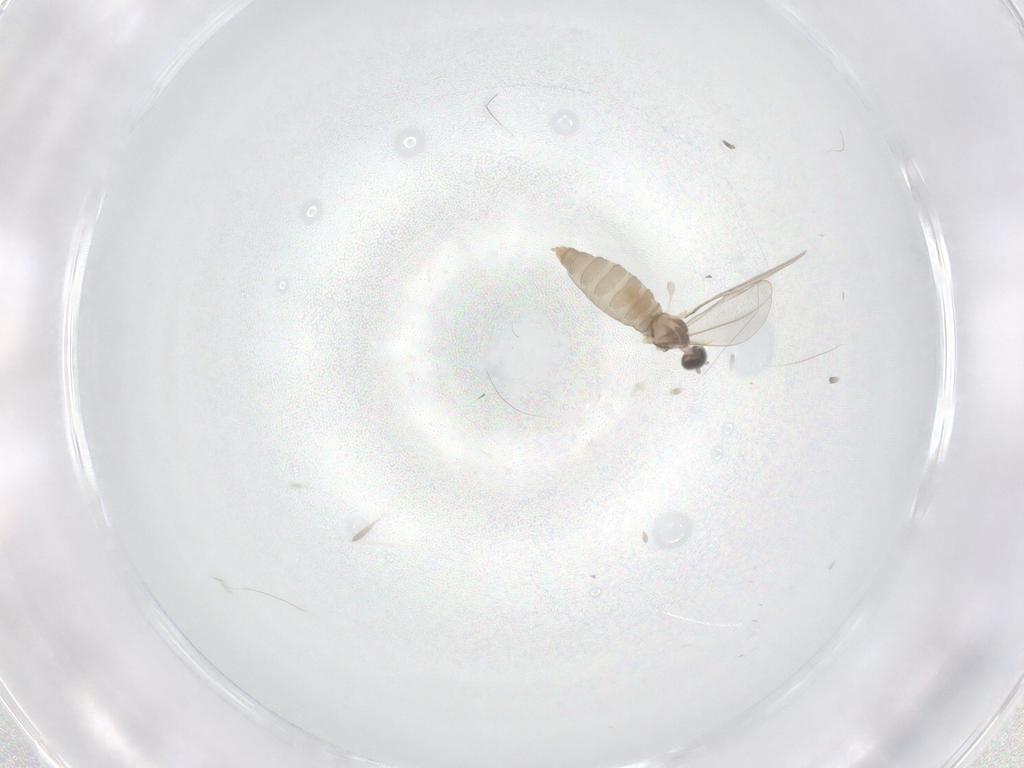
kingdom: Animalia
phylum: Arthropoda
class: Insecta
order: Diptera
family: Cecidomyiidae
